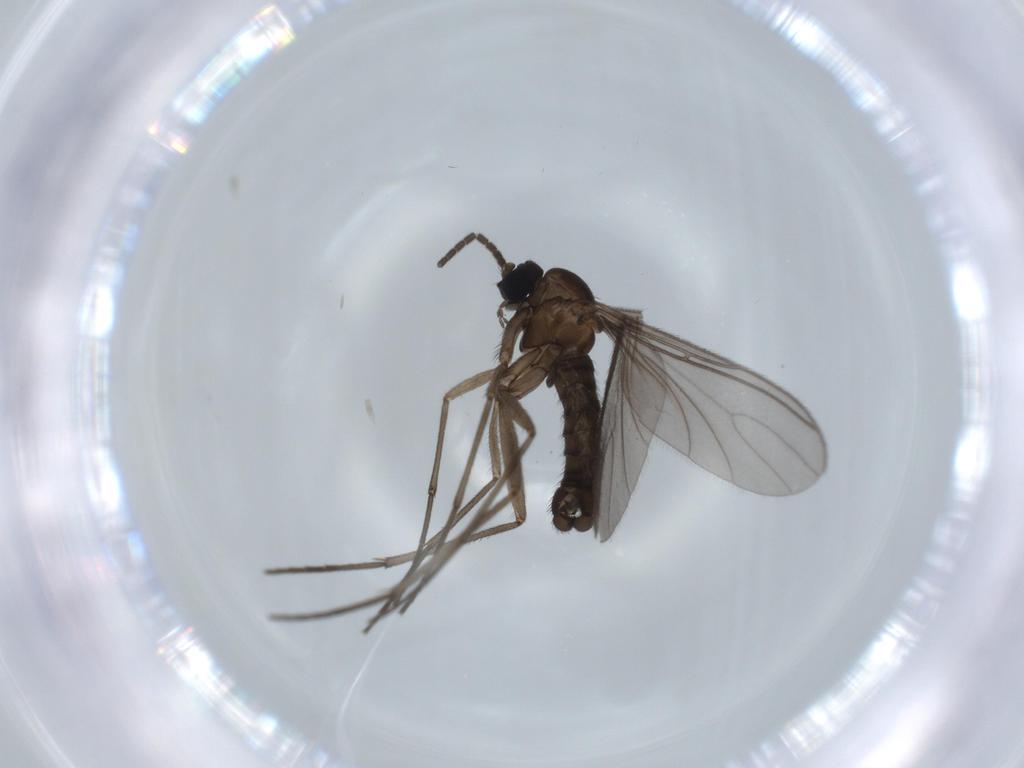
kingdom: Animalia
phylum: Arthropoda
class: Insecta
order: Diptera
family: Sciaridae
